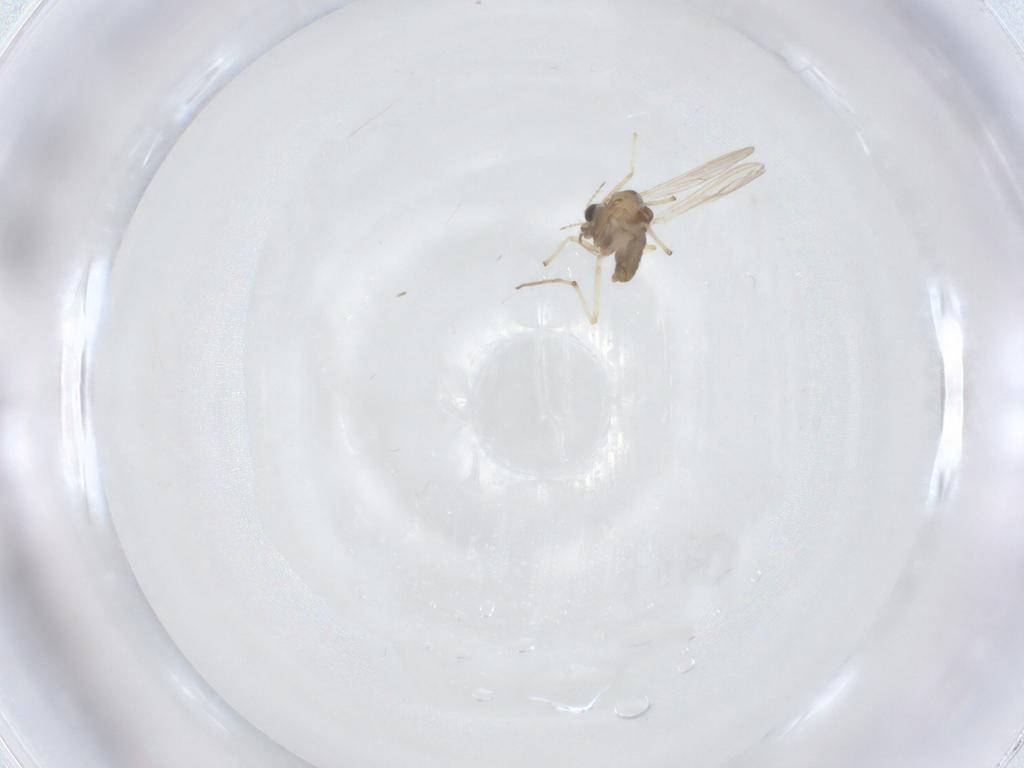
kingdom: Animalia
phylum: Arthropoda
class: Insecta
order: Diptera
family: Chironomidae
